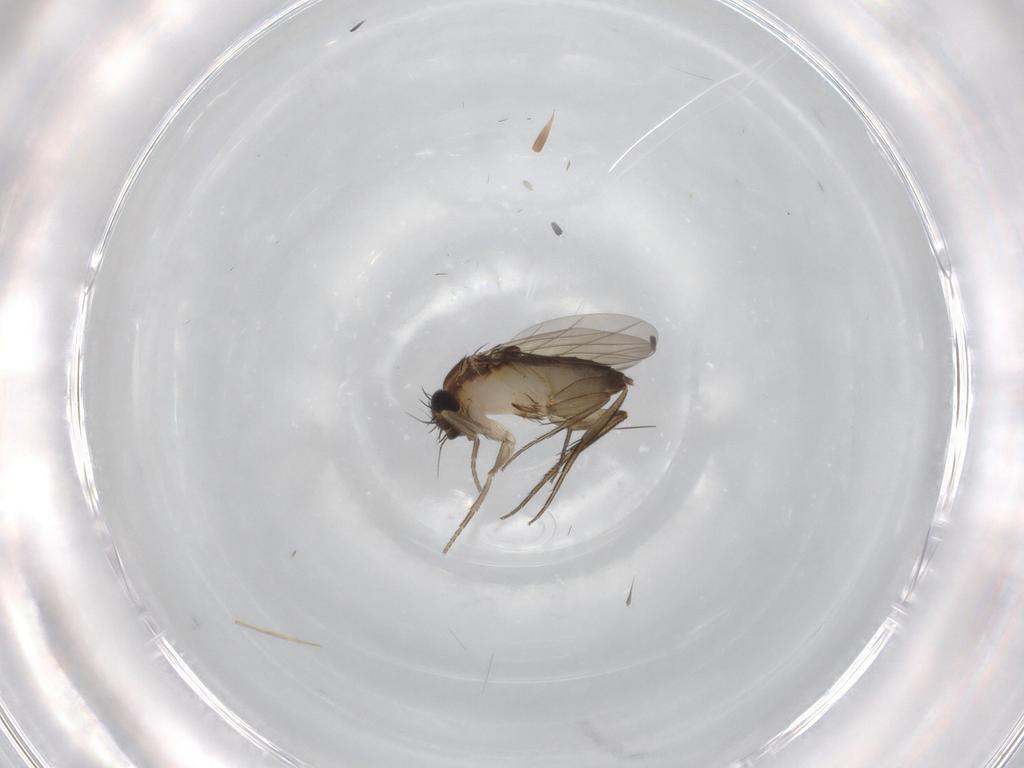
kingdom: Animalia
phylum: Arthropoda
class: Insecta
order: Diptera
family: Phoridae
